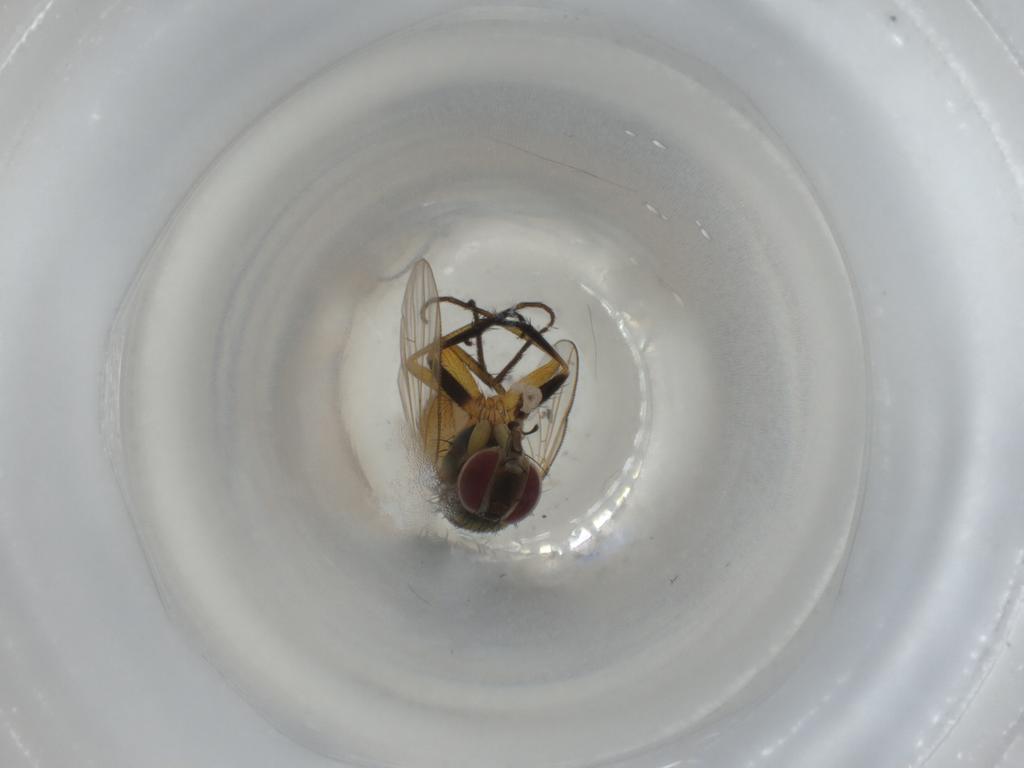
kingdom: Animalia
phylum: Arthropoda
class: Insecta
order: Diptera
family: Muscidae
